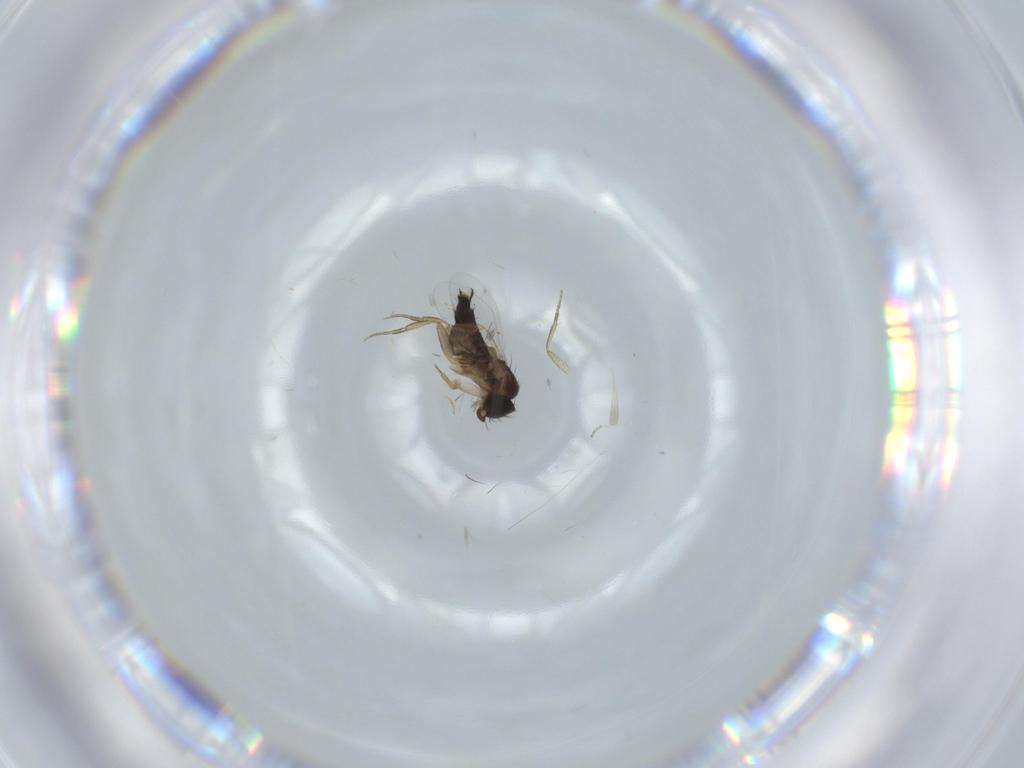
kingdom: Animalia
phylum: Arthropoda
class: Insecta
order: Diptera
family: Phoridae
